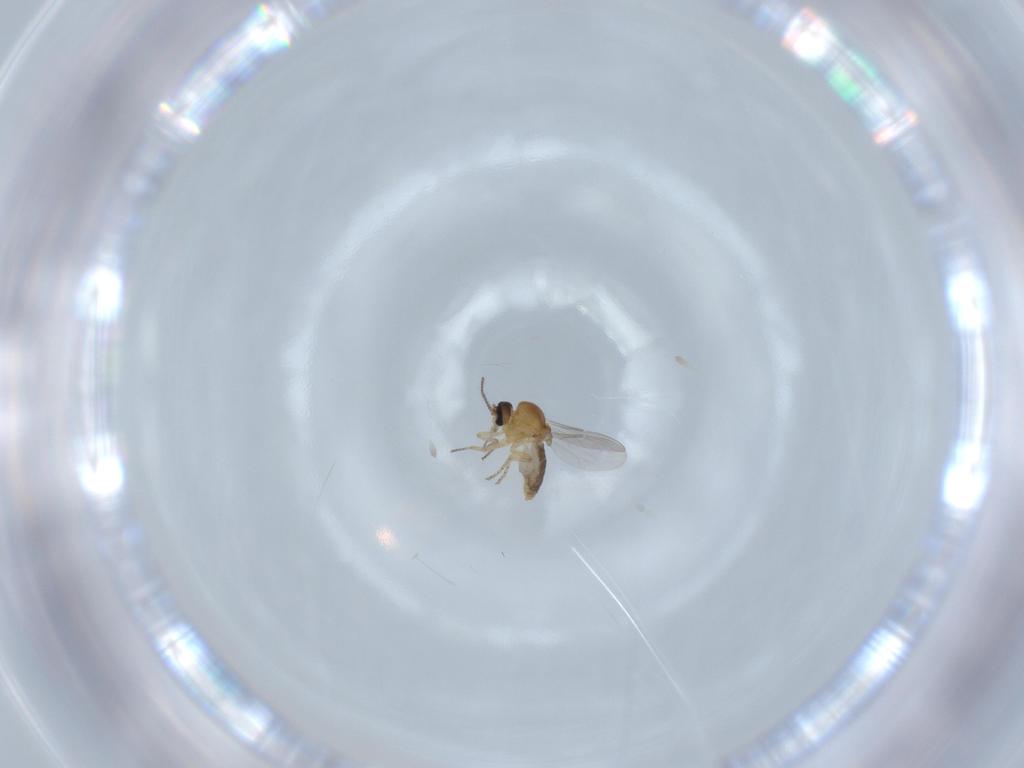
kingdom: Animalia
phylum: Arthropoda
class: Insecta
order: Diptera
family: Ceratopogonidae
